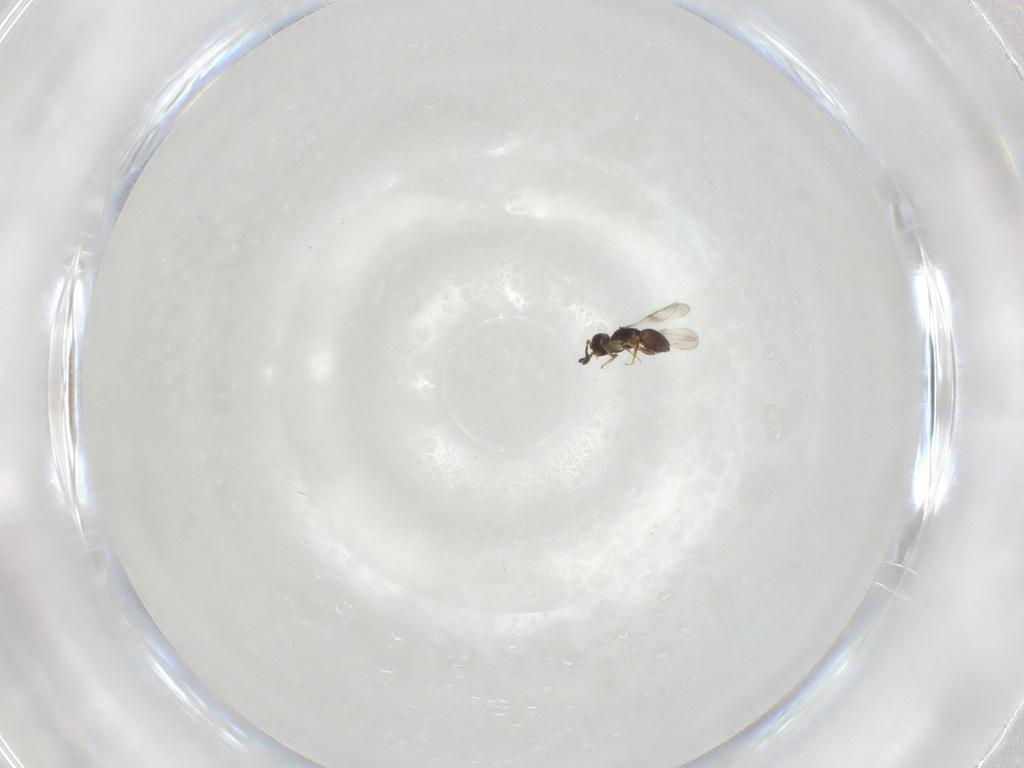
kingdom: Animalia
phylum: Arthropoda
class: Insecta
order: Hymenoptera
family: Ceraphronidae
